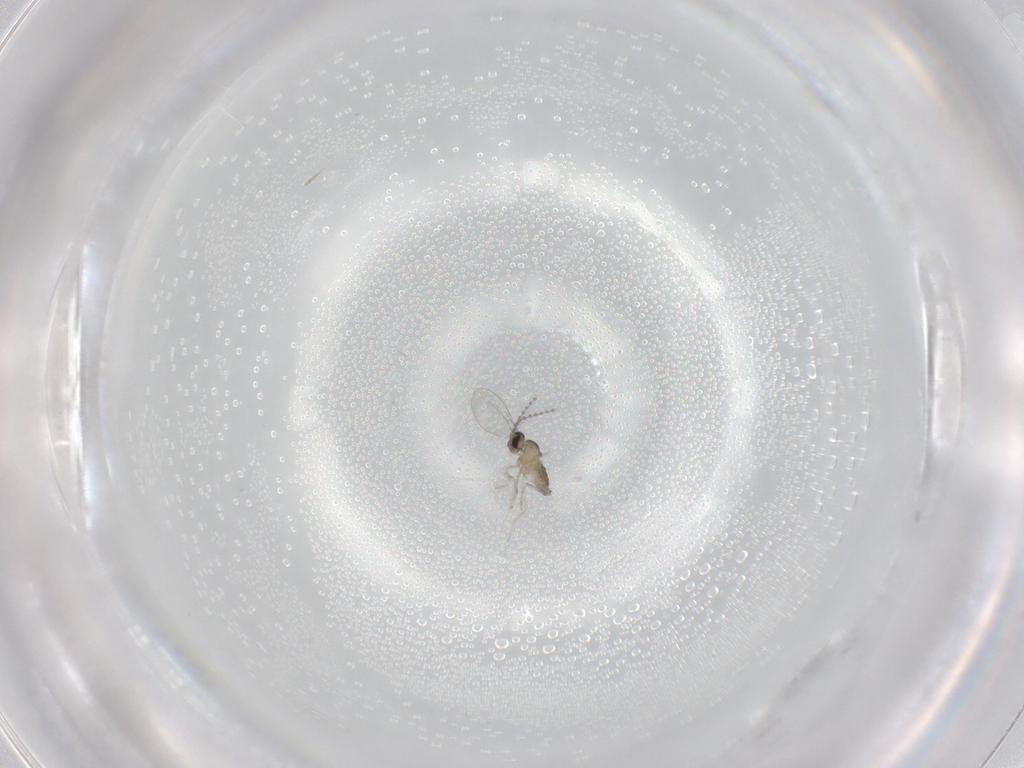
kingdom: Animalia
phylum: Arthropoda
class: Insecta
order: Diptera
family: Cecidomyiidae
